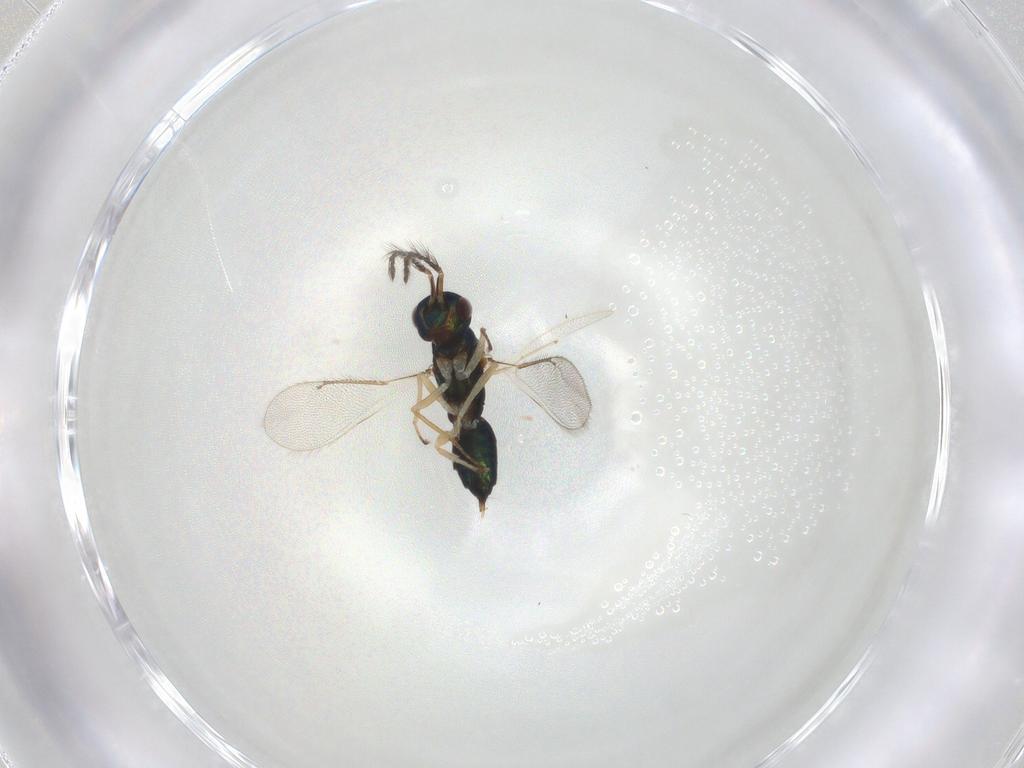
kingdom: Animalia
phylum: Arthropoda
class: Insecta
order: Hymenoptera
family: Eulophidae
